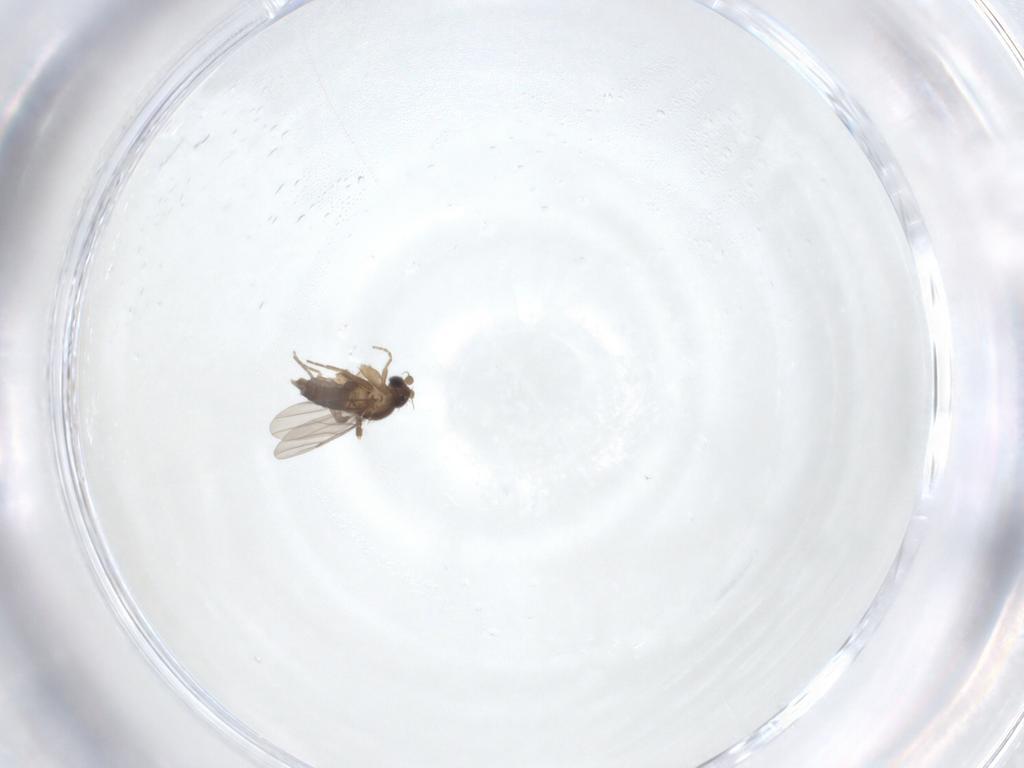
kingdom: Animalia
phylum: Arthropoda
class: Insecta
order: Diptera
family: Phoridae
